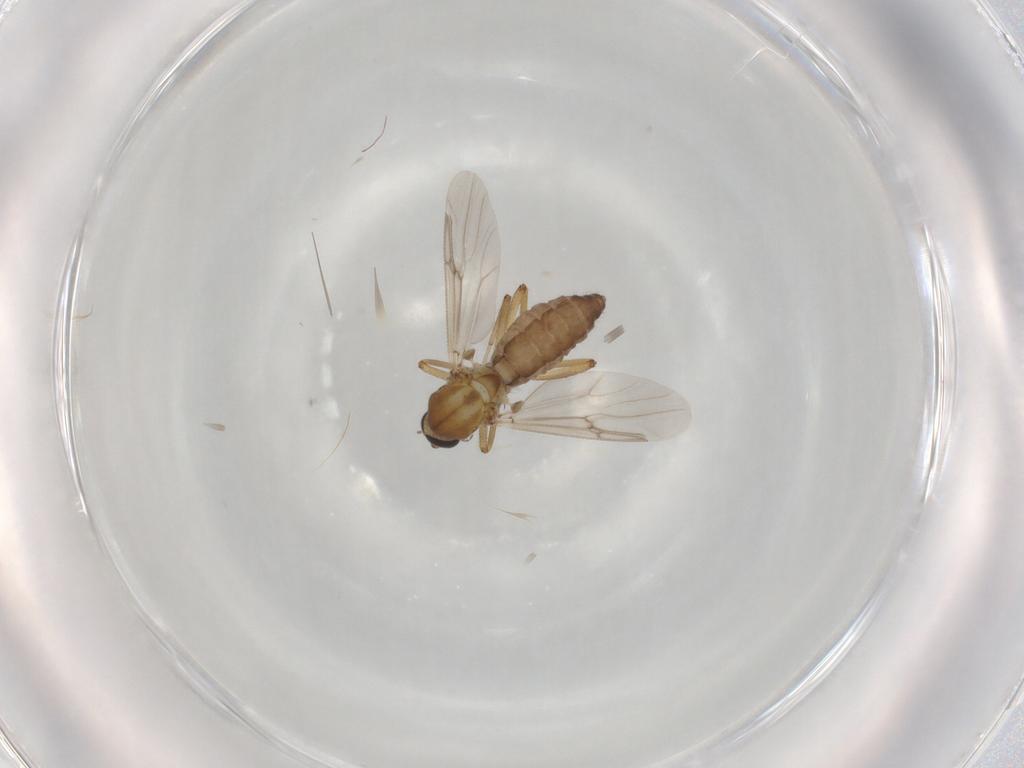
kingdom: Animalia
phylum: Arthropoda
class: Insecta
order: Diptera
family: Ceratopogonidae
